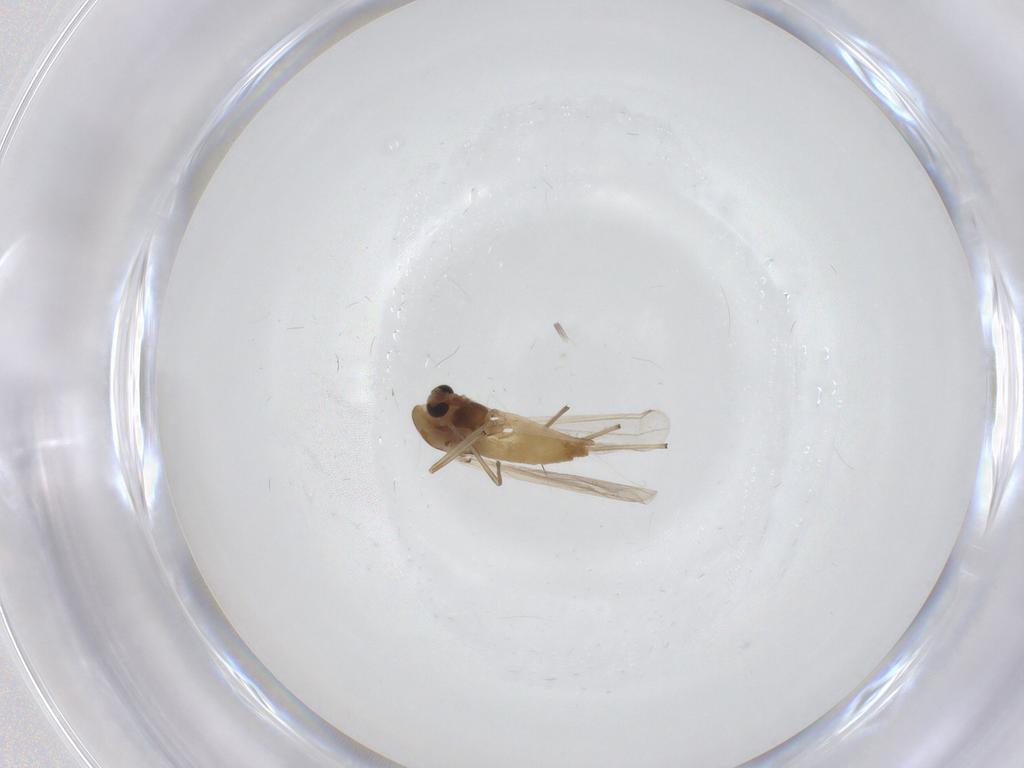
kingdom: Animalia
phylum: Arthropoda
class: Insecta
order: Diptera
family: Chironomidae
